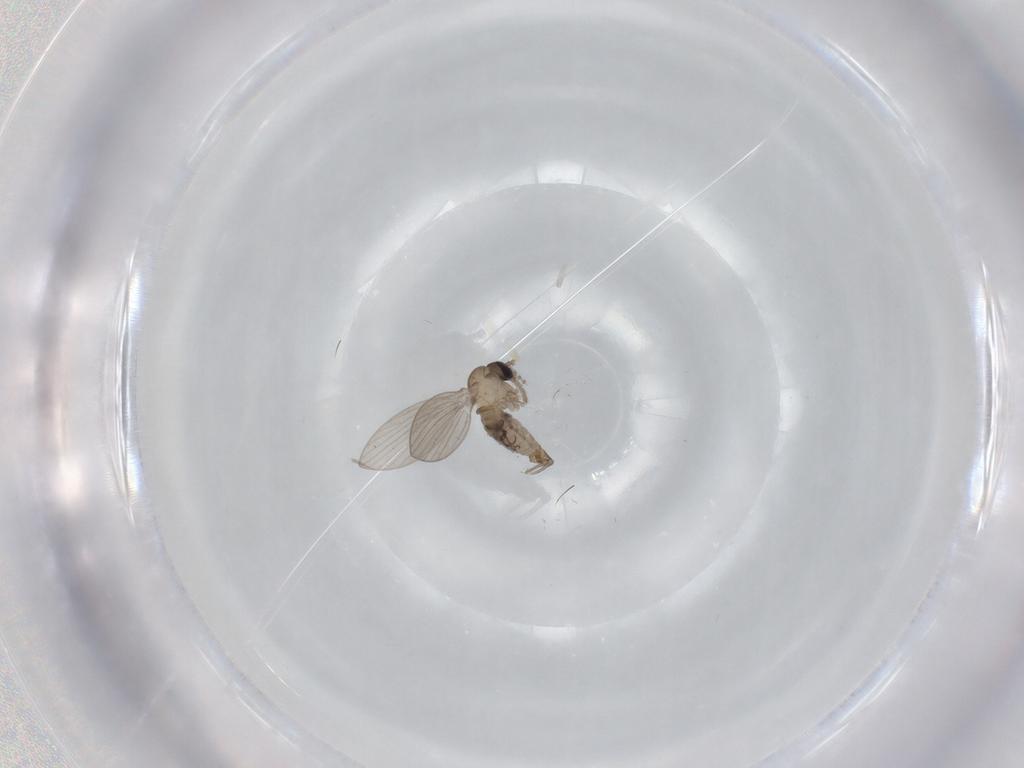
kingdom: Animalia
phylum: Arthropoda
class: Insecta
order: Diptera
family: Psychodidae
